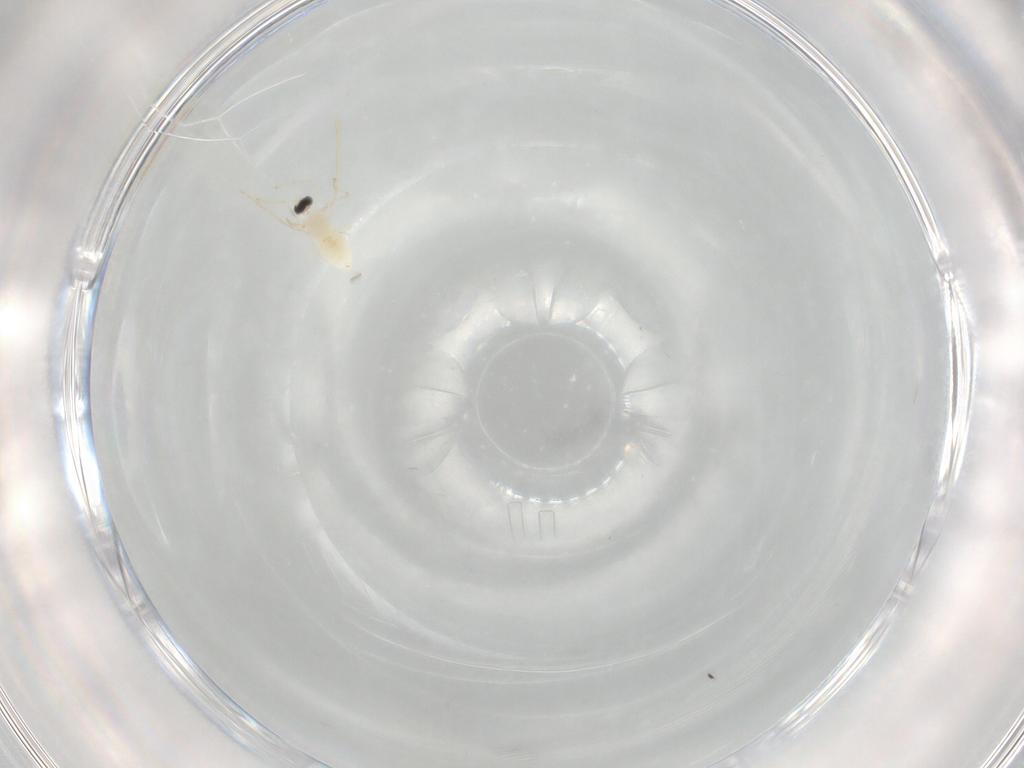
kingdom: Animalia
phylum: Arthropoda
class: Insecta
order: Diptera
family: Cecidomyiidae
